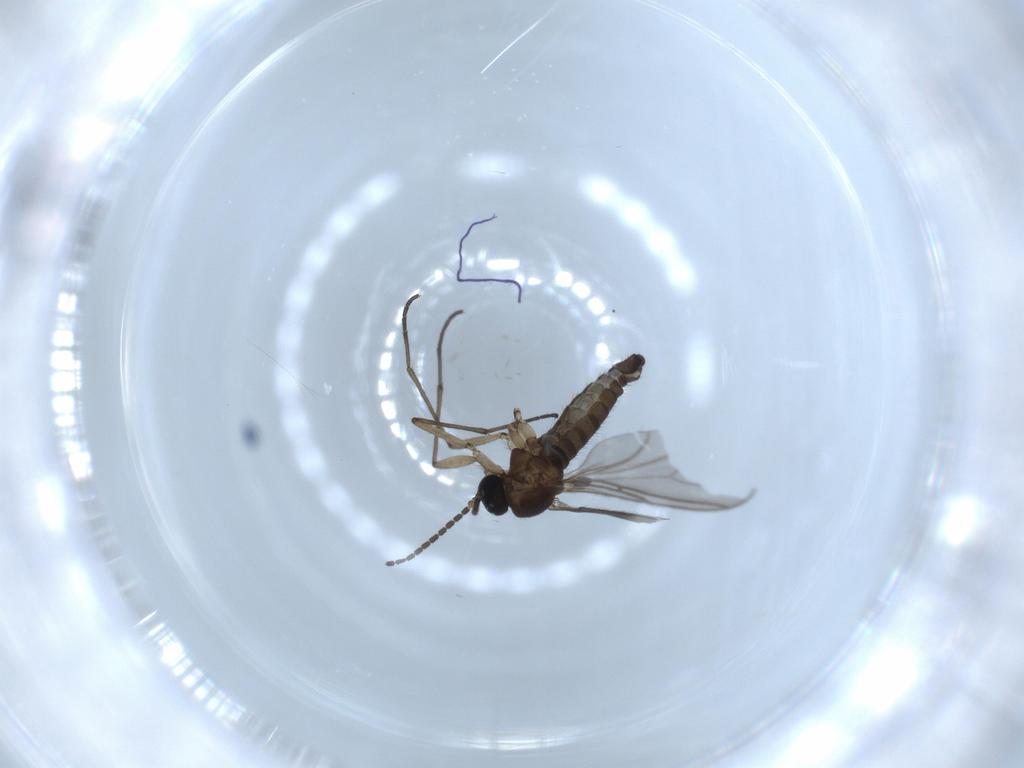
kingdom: Animalia
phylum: Arthropoda
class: Insecta
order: Diptera
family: Sciaridae
